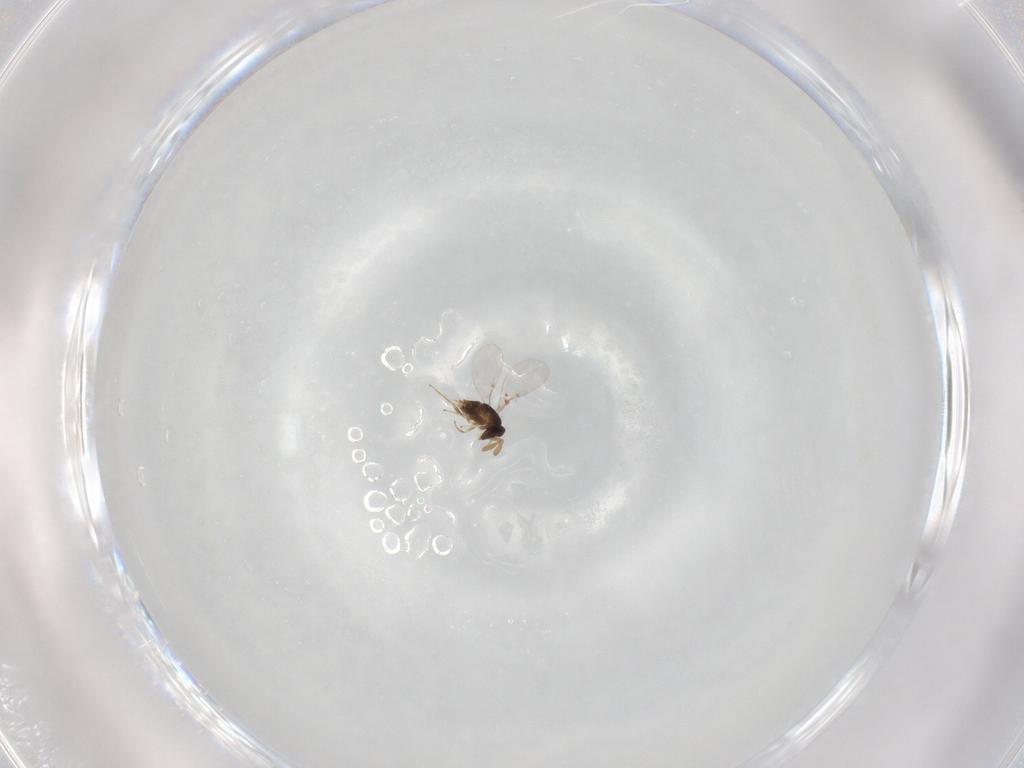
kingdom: Animalia
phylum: Arthropoda
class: Insecta
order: Hymenoptera
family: Encyrtidae
